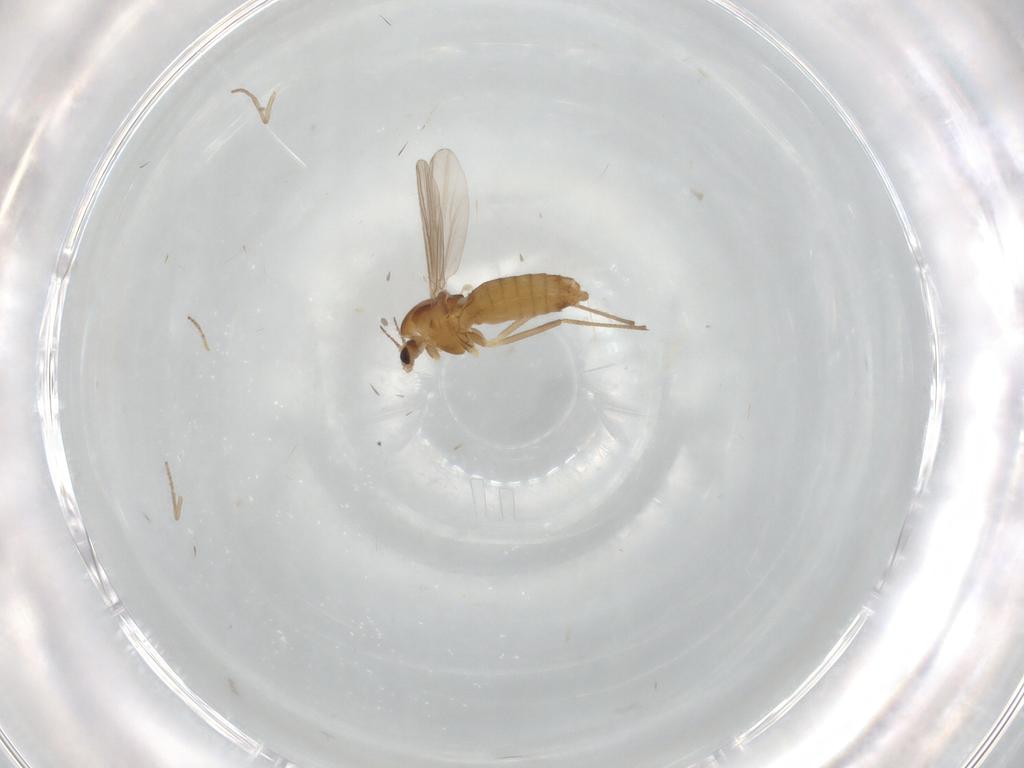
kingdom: Animalia
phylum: Arthropoda
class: Insecta
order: Diptera
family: Chironomidae
